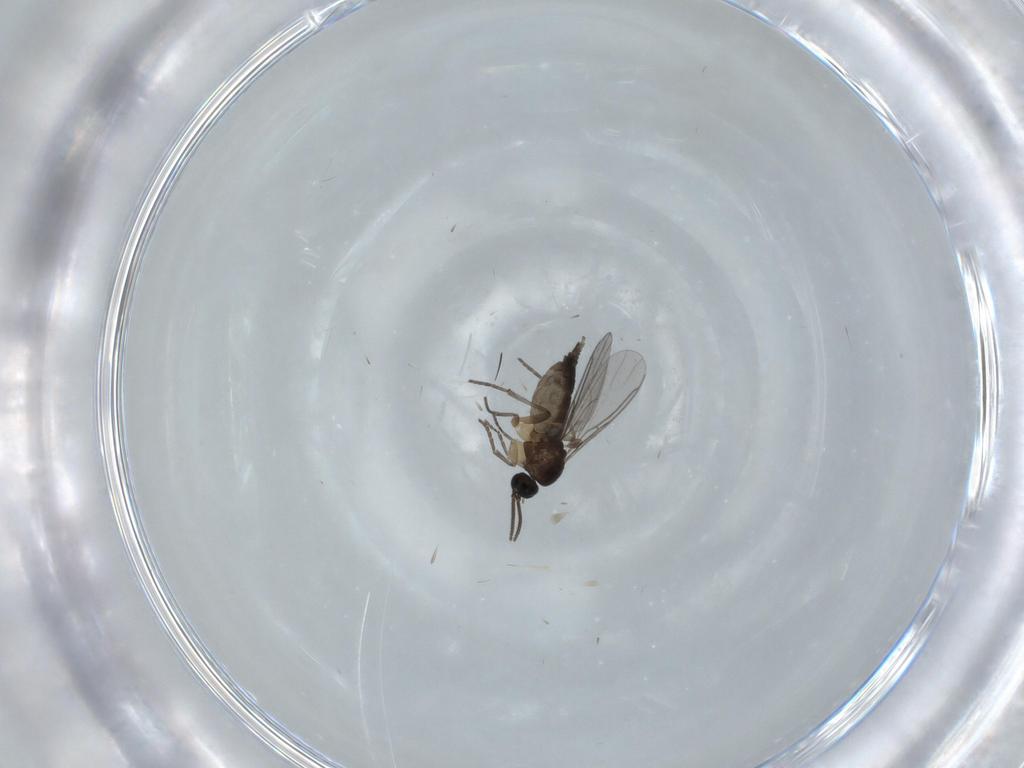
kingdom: Animalia
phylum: Arthropoda
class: Insecta
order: Diptera
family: Sciaridae
